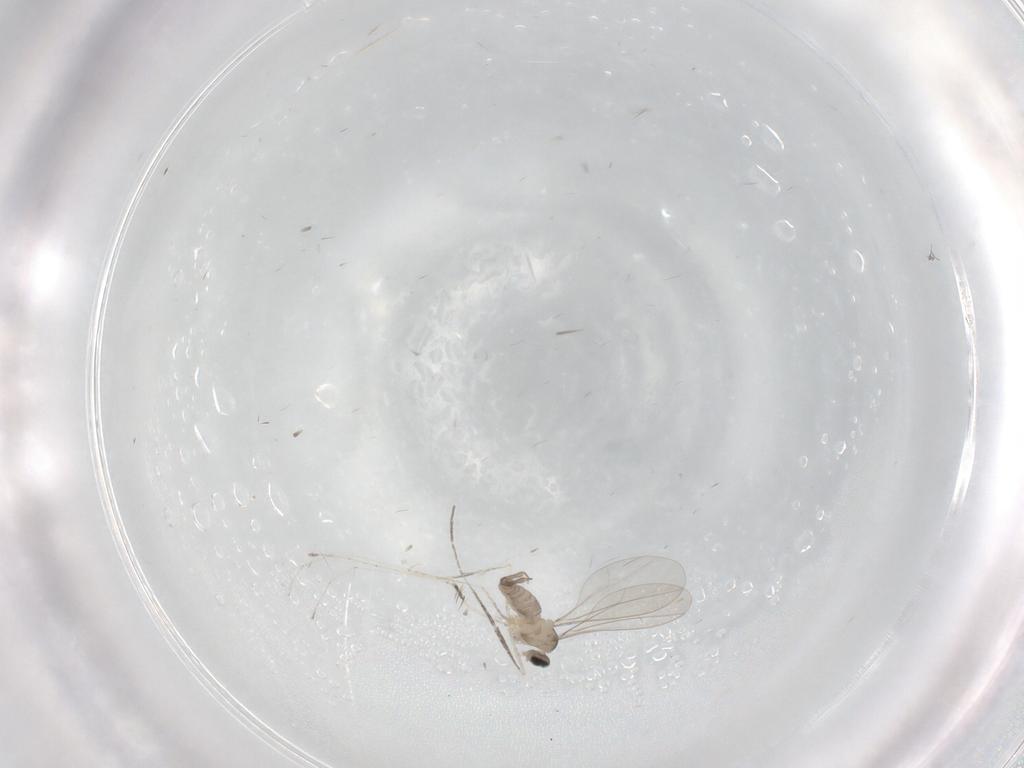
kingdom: Animalia
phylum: Arthropoda
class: Insecta
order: Diptera
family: Cecidomyiidae
